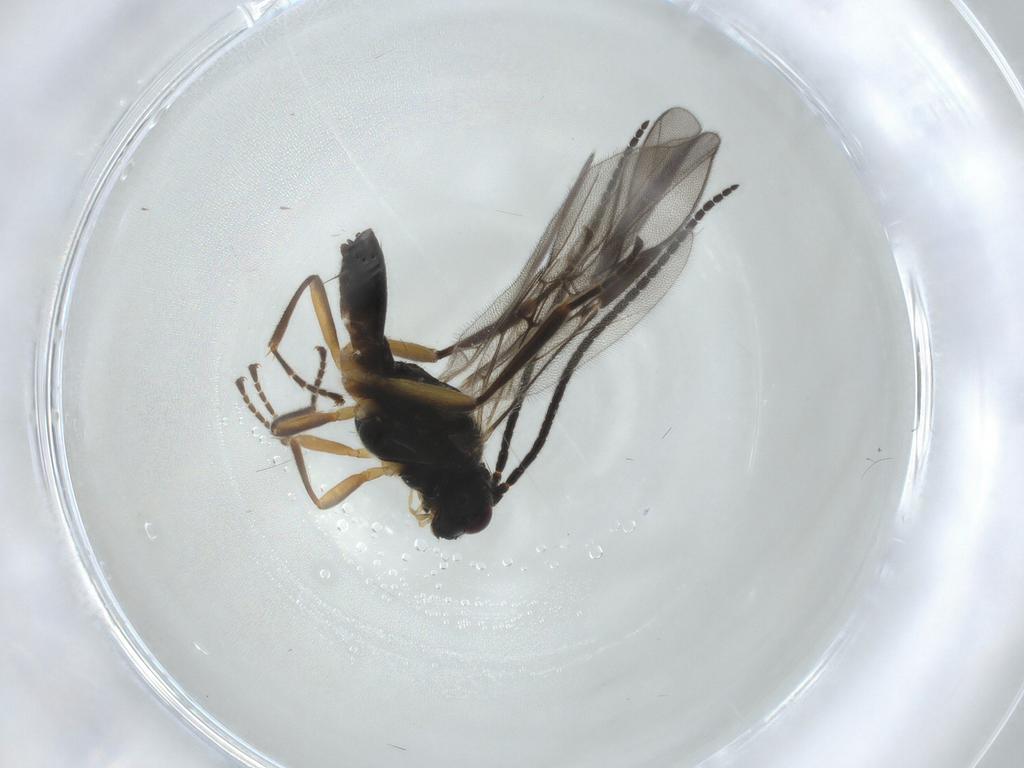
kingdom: Animalia
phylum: Arthropoda
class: Insecta
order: Hymenoptera
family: Braconidae
